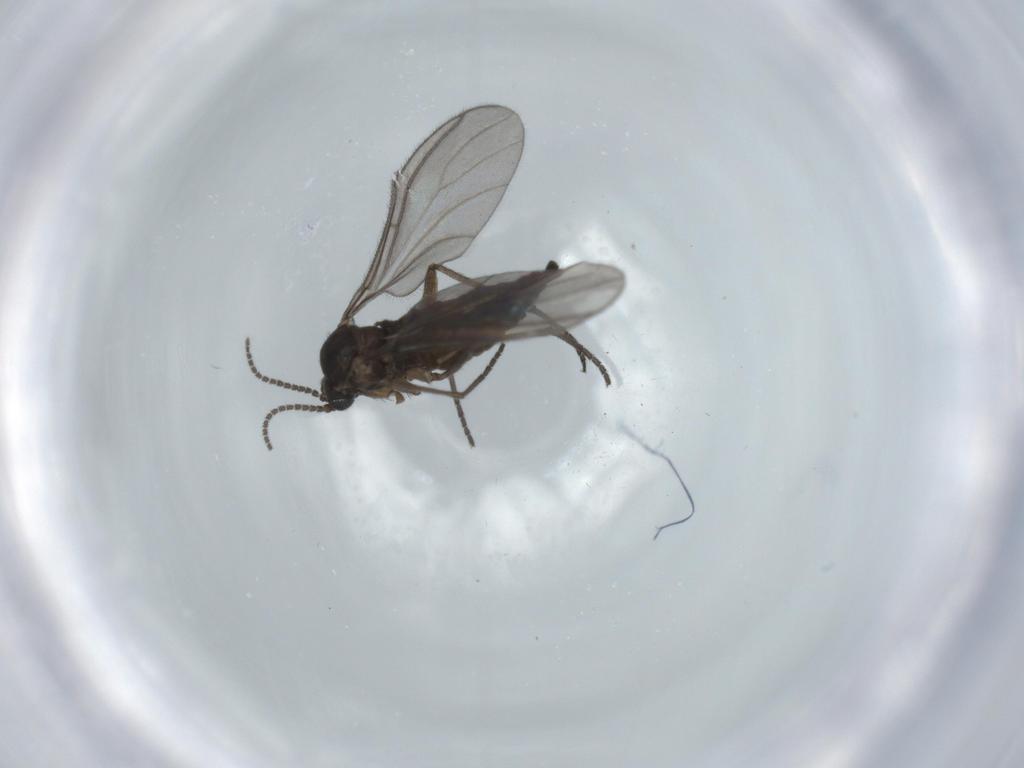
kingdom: Animalia
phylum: Arthropoda
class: Insecta
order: Diptera
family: Sciaridae
